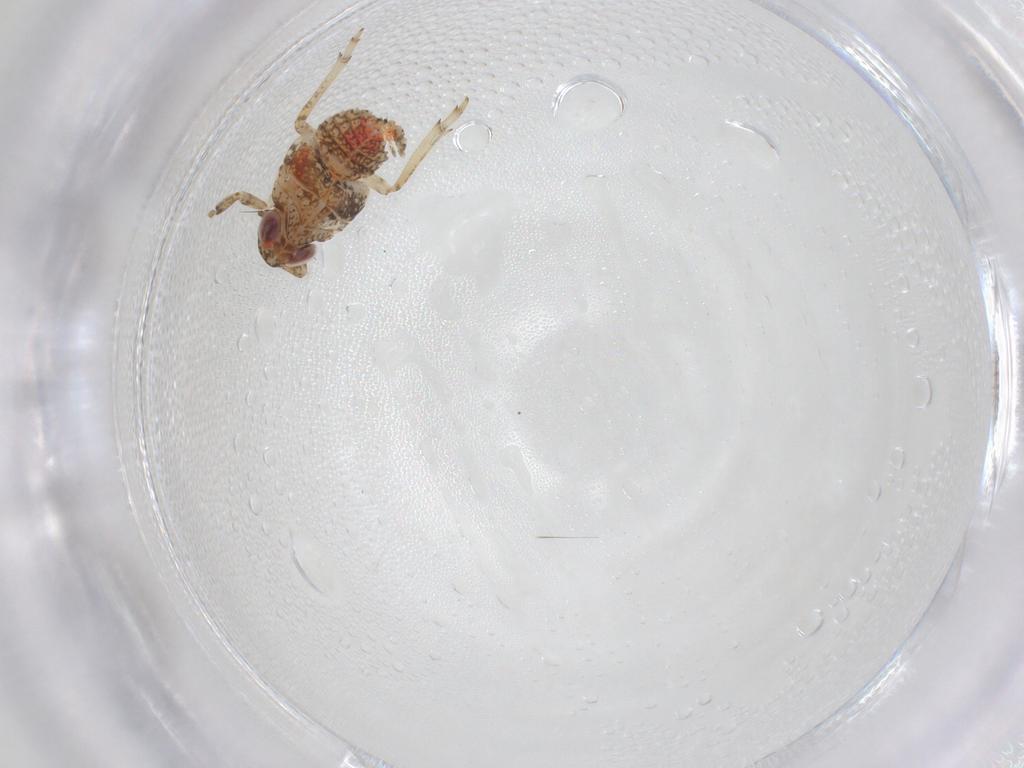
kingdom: Animalia
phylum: Arthropoda
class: Insecta
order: Hemiptera
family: Issidae
